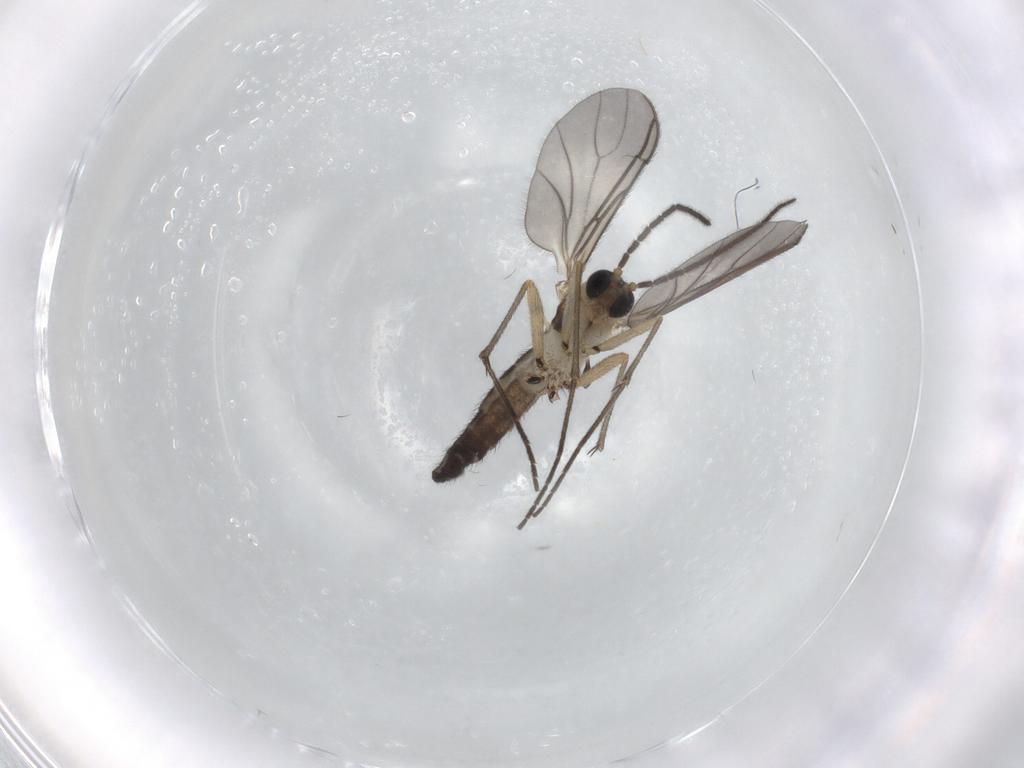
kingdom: Animalia
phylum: Arthropoda
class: Insecta
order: Diptera
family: Sciaridae
